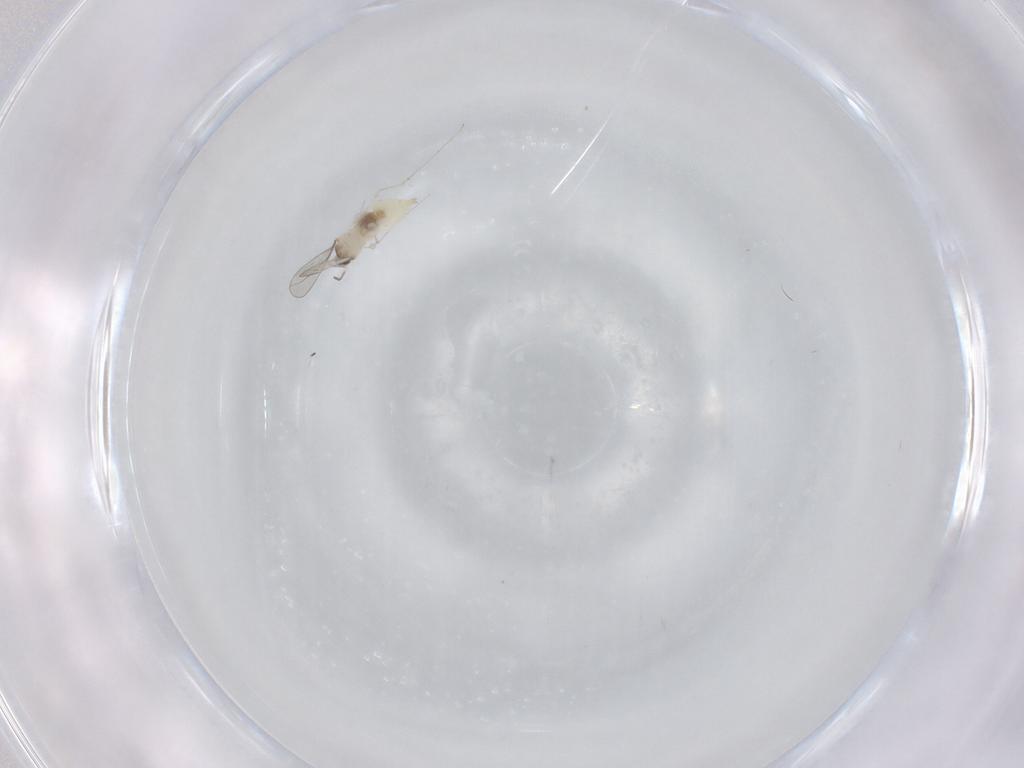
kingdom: Animalia
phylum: Arthropoda
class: Insecta
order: Diptera
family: Cecidomyiidae
